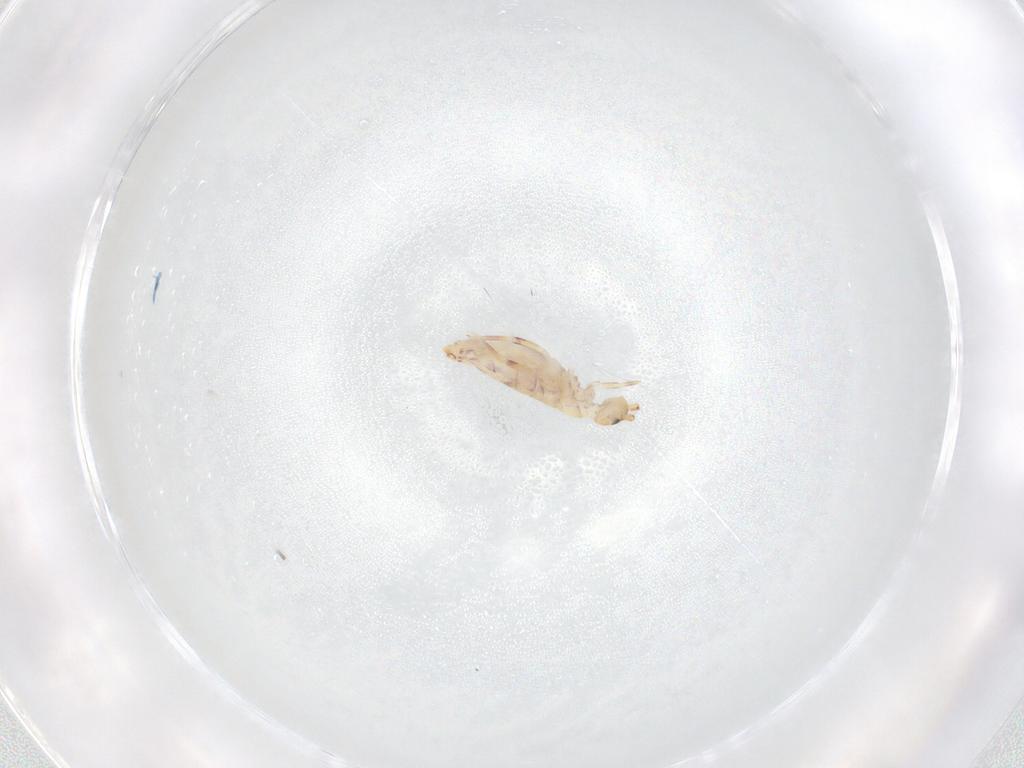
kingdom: Animalia
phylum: Arthropoda
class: Collembola
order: Entomobryomorpha
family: Entomobryidae
